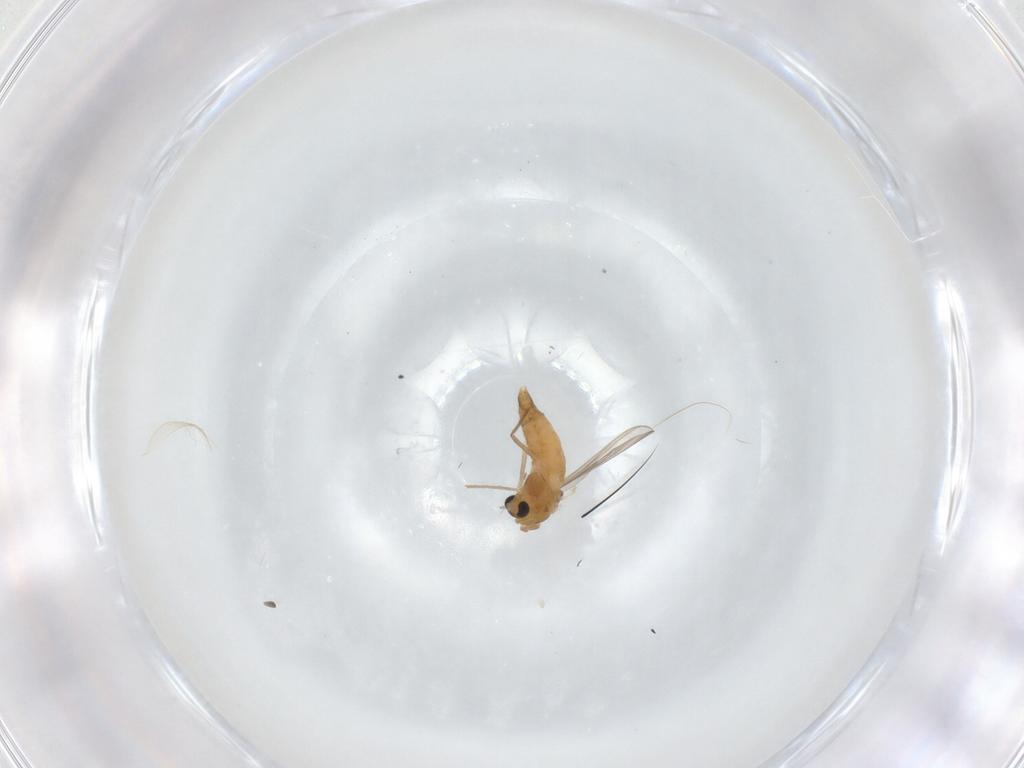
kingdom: Animalia
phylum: Arthropoda
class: Insecta
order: Diptera
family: Chironomidae
